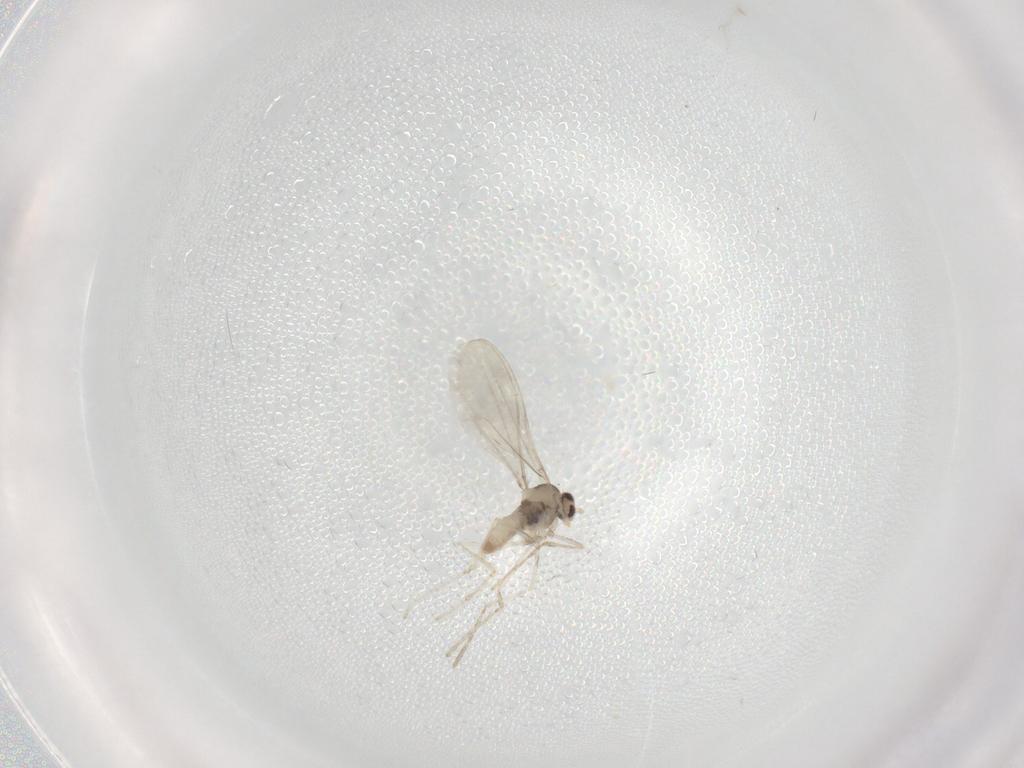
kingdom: Animalia
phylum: Arthropoda
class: Insecta
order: Diptera
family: Cecidomyiidae
